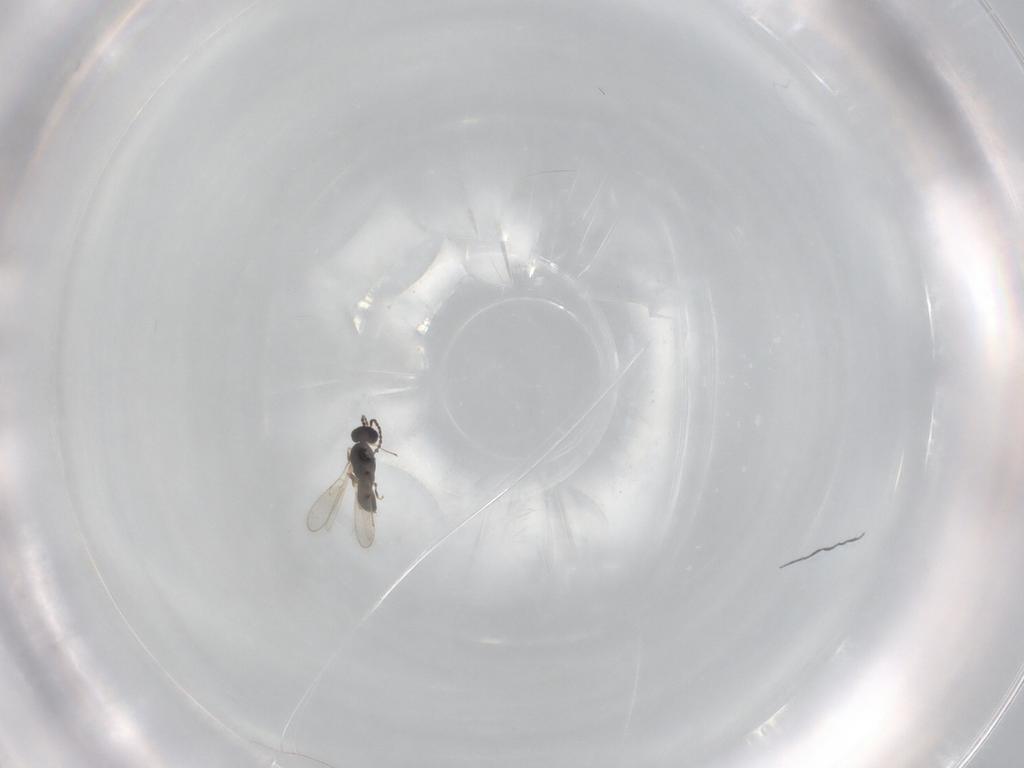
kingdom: Animalia
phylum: Arthropoda
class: Insecta
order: Hymenoptera
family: Scelionidae
